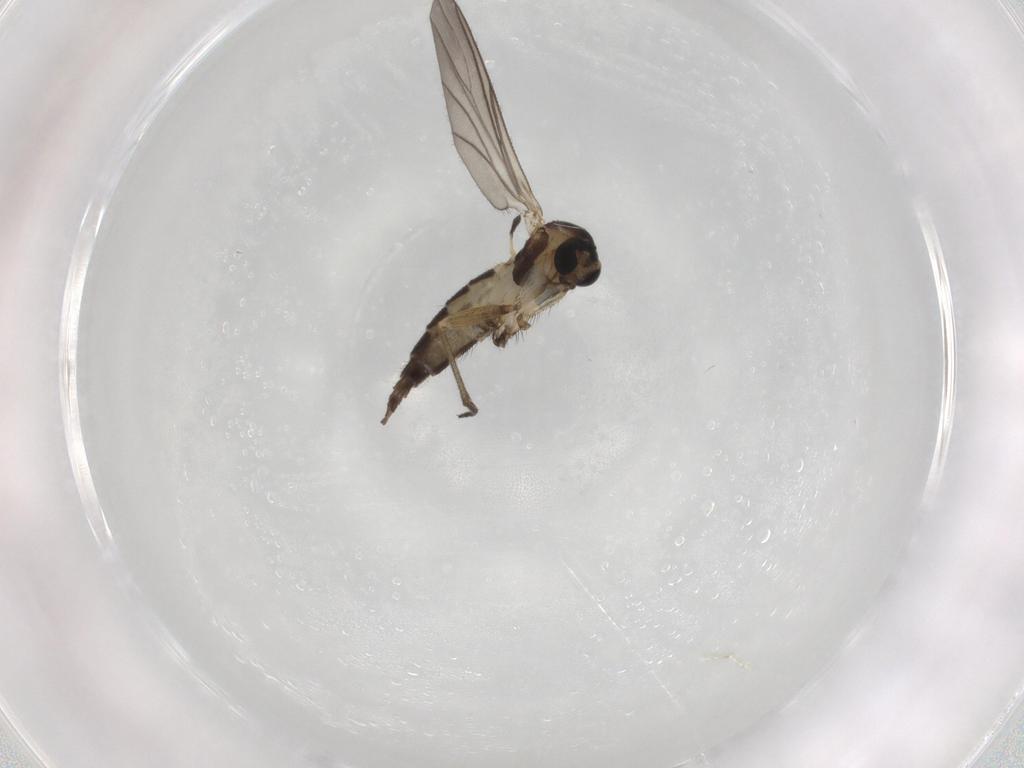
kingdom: Animalia
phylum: Arthropoda
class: Insecta
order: Diptera
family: Sciaridae
